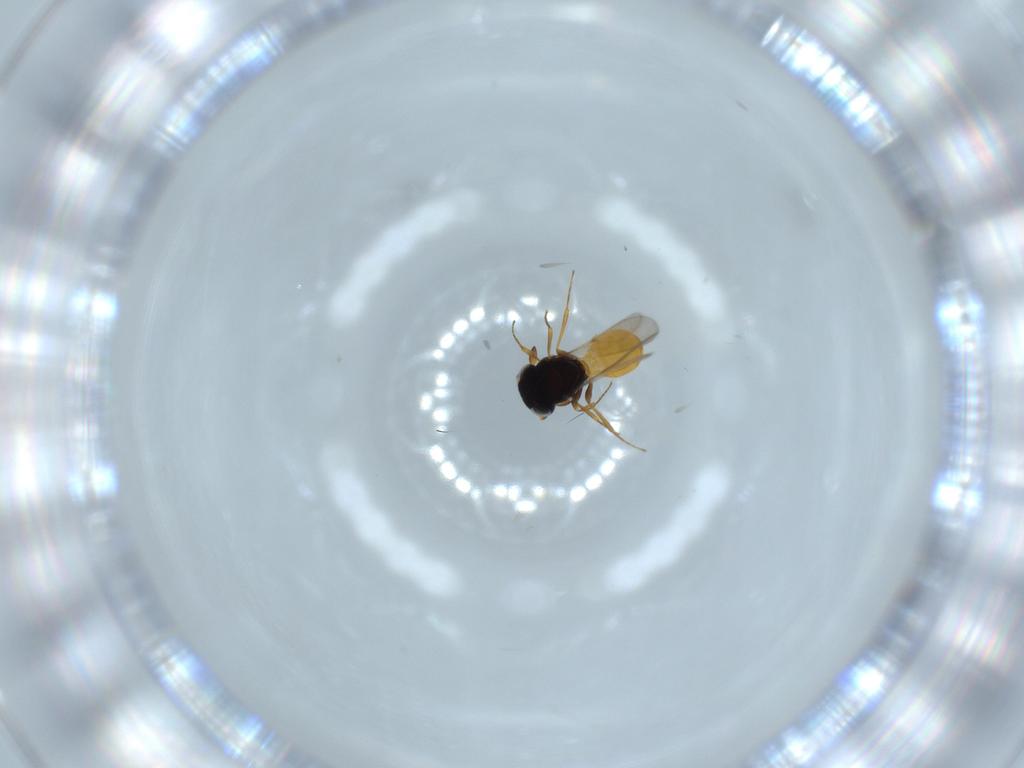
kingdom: Animalia
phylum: Arthropoda
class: Insecta
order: Hymenoptera
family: Scelionidae
